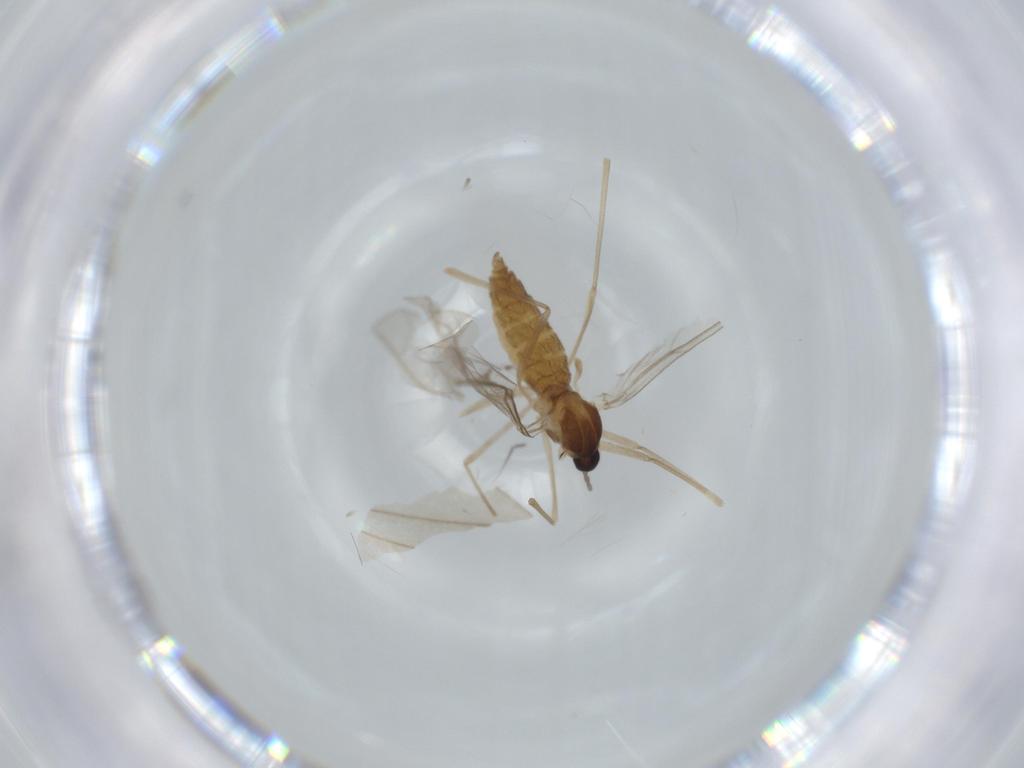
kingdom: Animalia
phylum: Arthropoda
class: Insecta
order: Diptera
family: Cecidomyiidae
